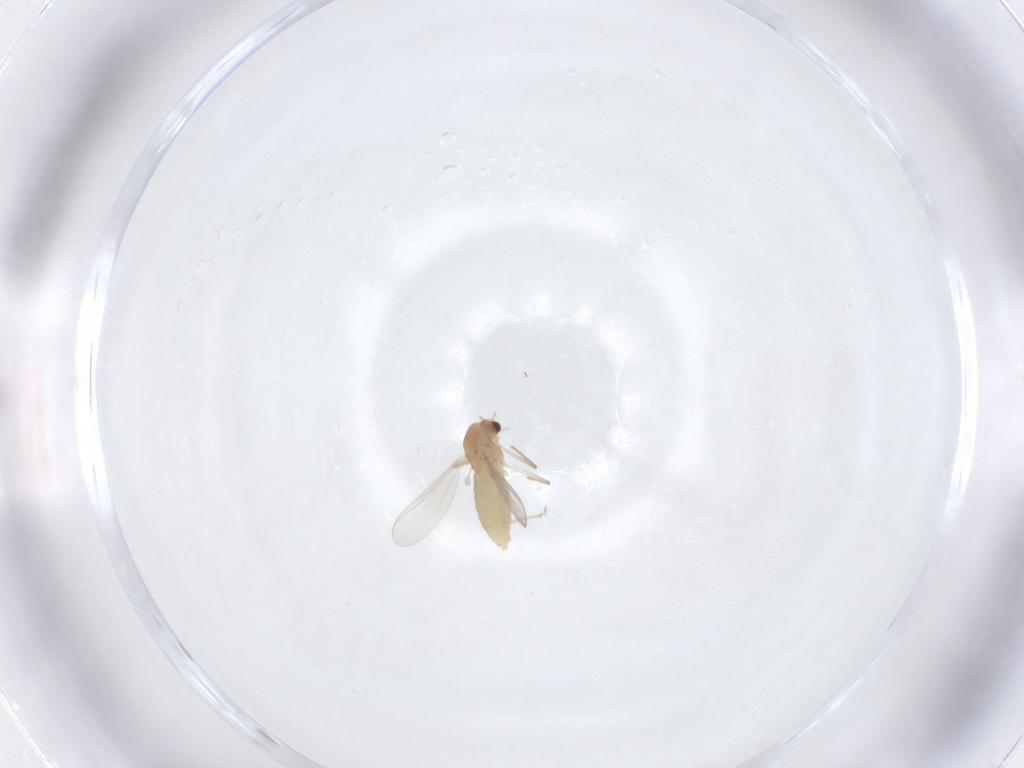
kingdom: Animalia
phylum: Arthropoda
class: Insecta
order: Diptera
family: Chironomidae
